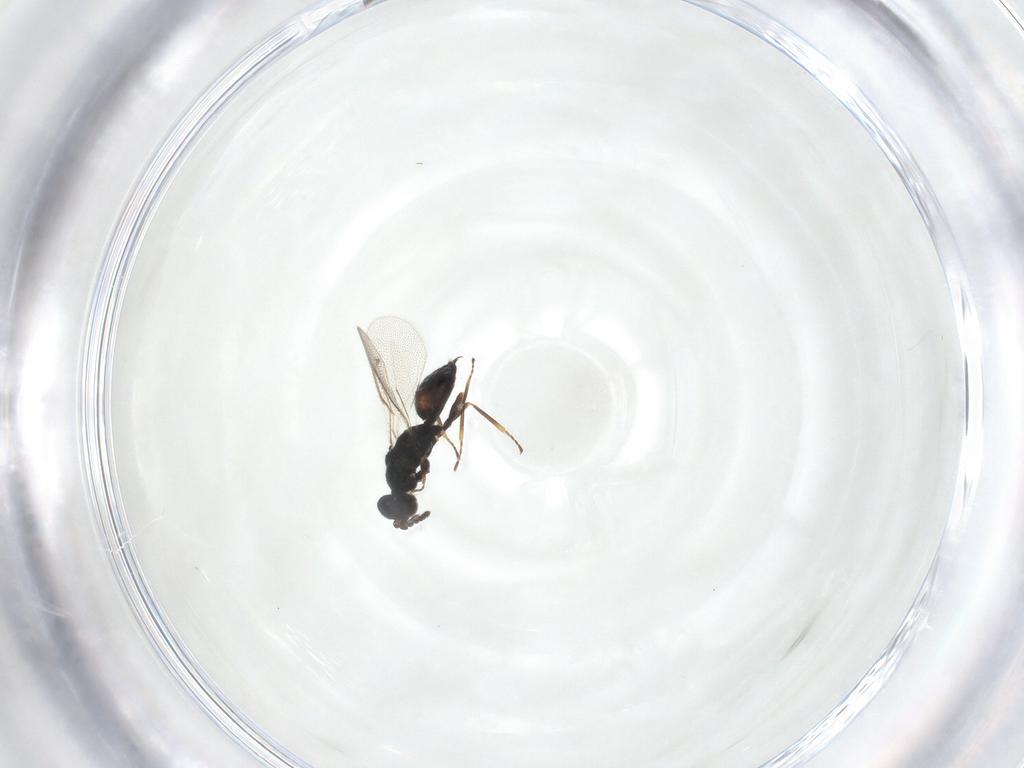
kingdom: Animalia
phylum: Arthropoda
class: Insecta
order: Hymenoptera
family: Eulophidae
